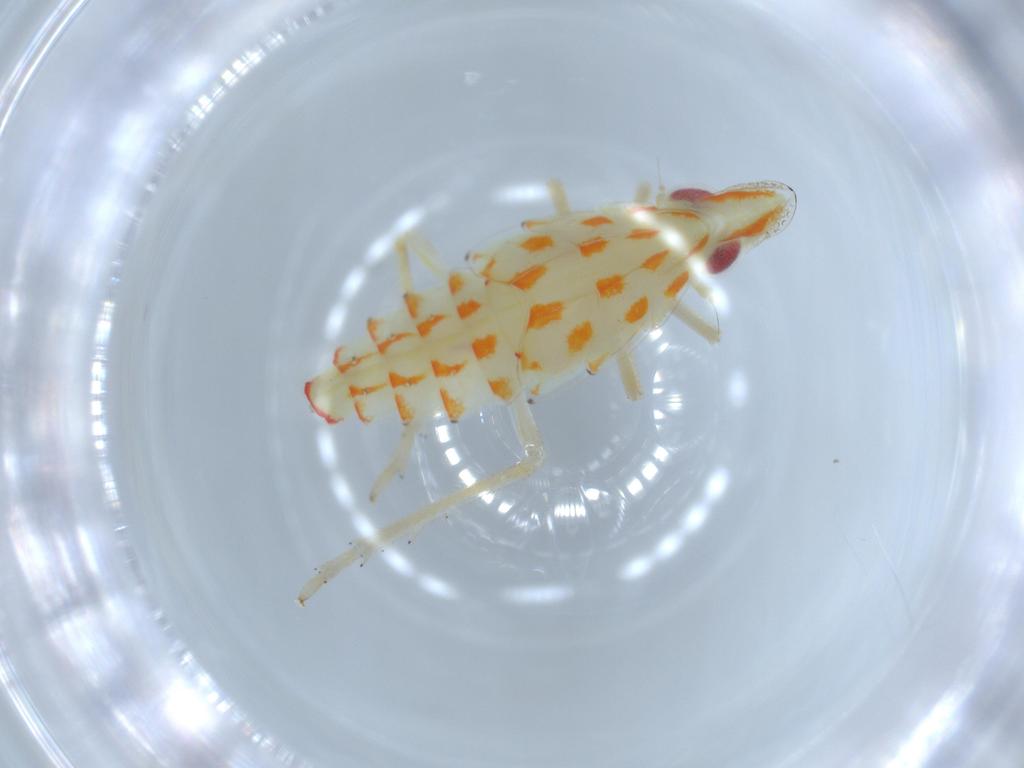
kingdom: Animalia
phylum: Arthropoda
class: Insecta
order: Hemiptera
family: Tropiduchidae
